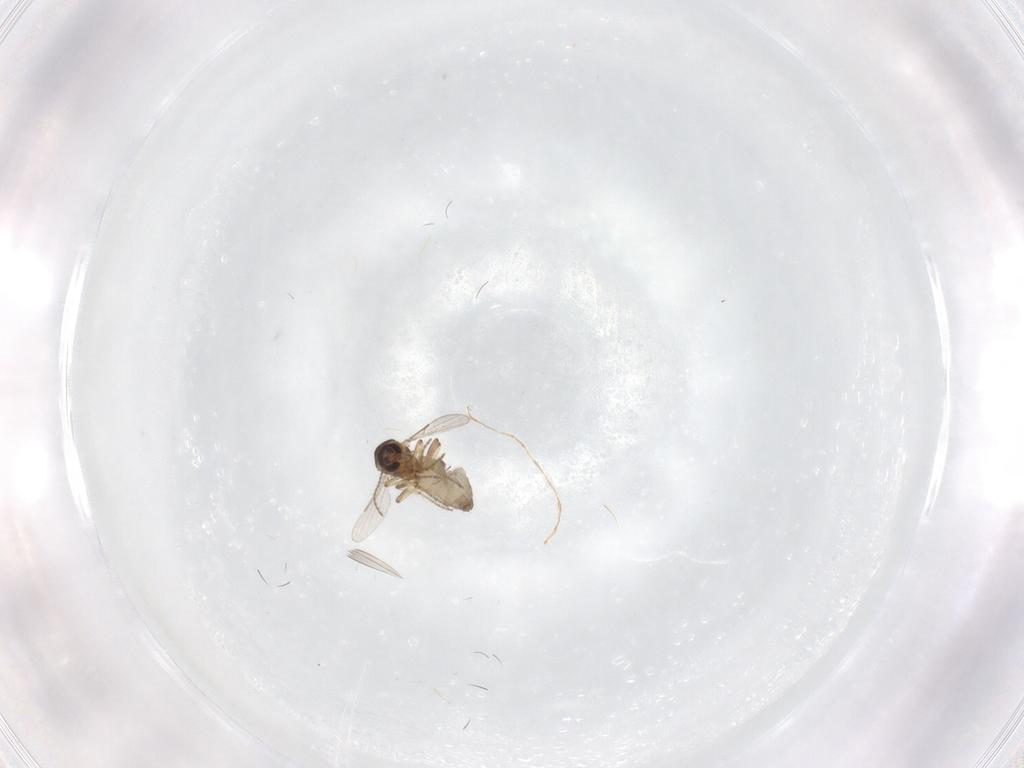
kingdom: Animalia
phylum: Arthropoda
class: Insecta
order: Diptera
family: Ceratopogonidae
